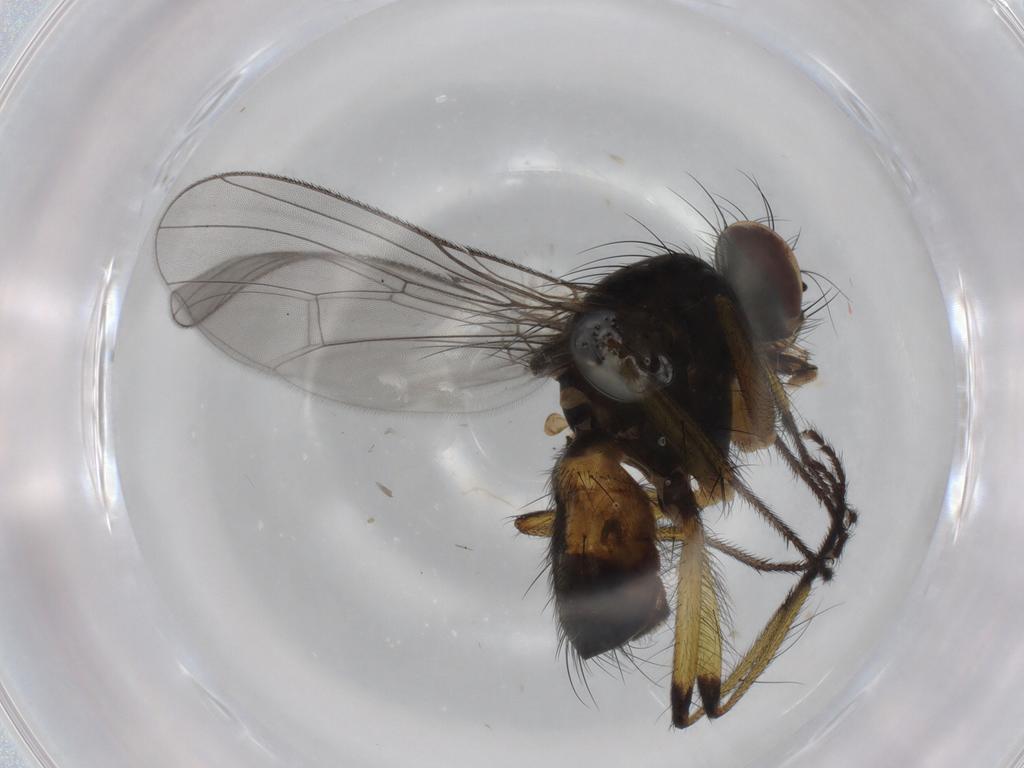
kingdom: Animalia
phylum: Arthropoda
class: Insecta
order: Diptera
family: Muscidae
